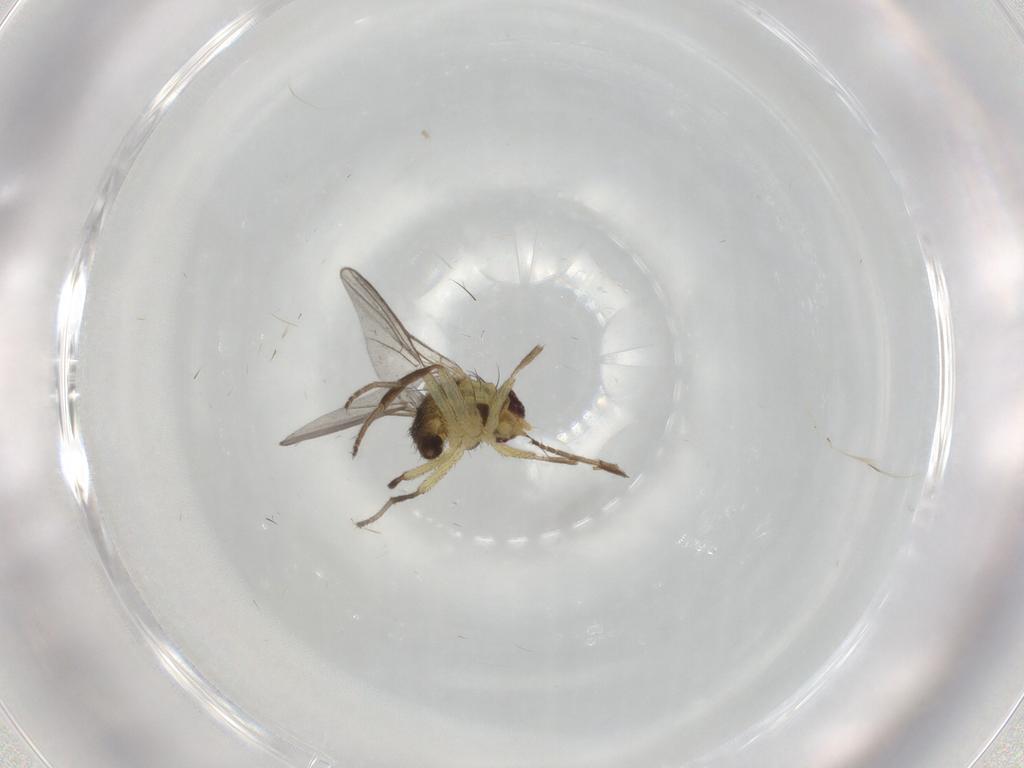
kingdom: Animalia
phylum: Arthropoda
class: Insecta
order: Diptera
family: Agromyzidae
